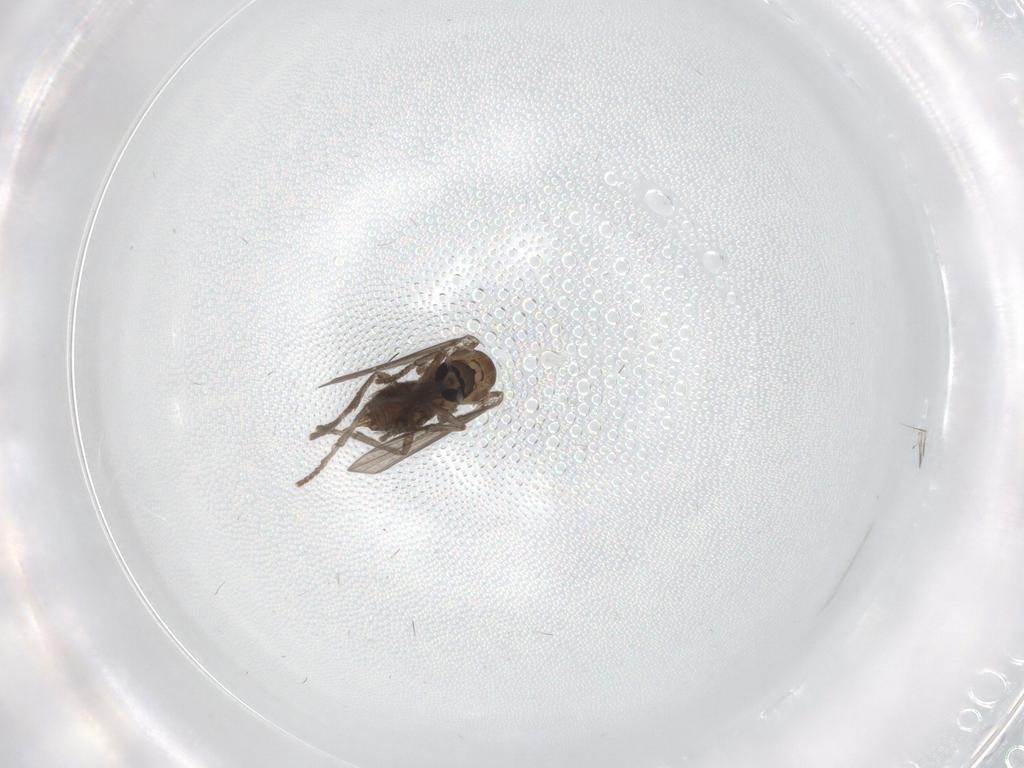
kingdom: Animalia
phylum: Arthropoda
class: Insecta
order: Diptera
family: Psychodidae
